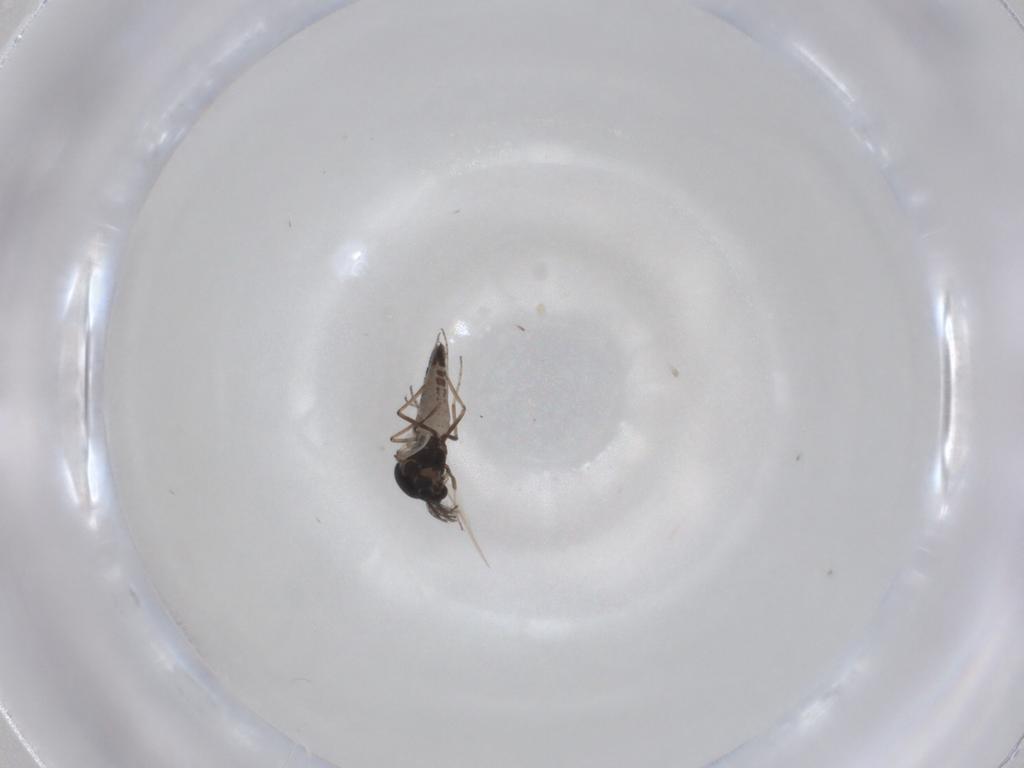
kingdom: Animalia
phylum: Arthropoda
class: Insecta
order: Diptera
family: Ceratopogonidae
